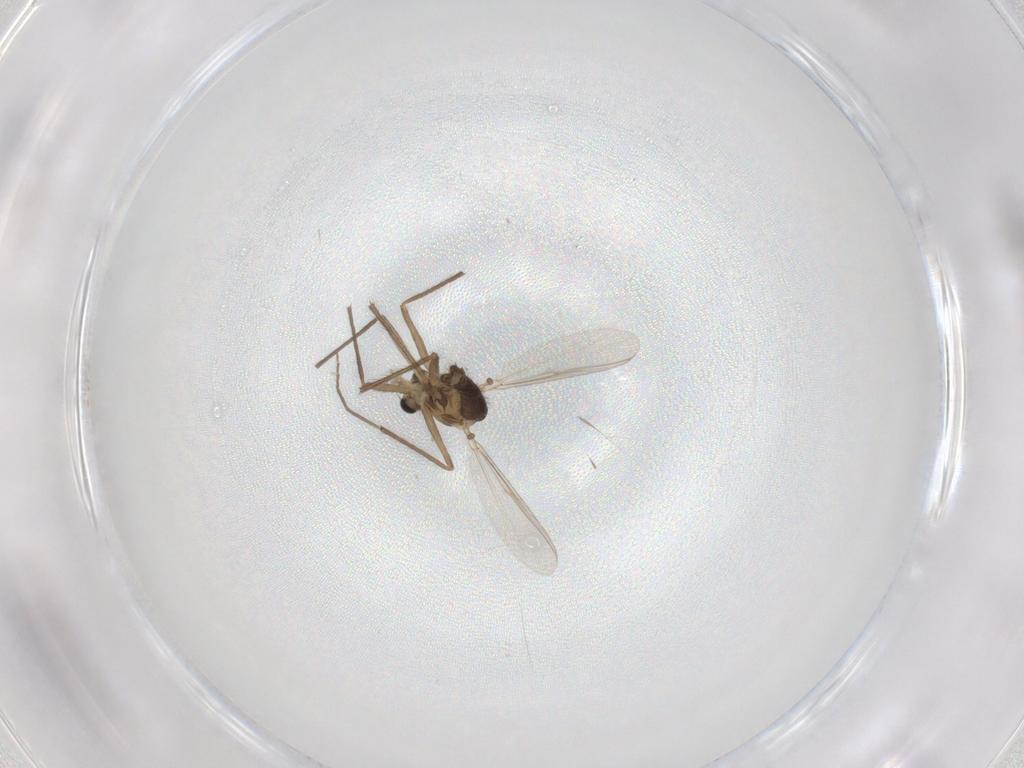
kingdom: Animalia
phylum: Arthropoda
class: Insecta
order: Diptera
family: Chironomidae
